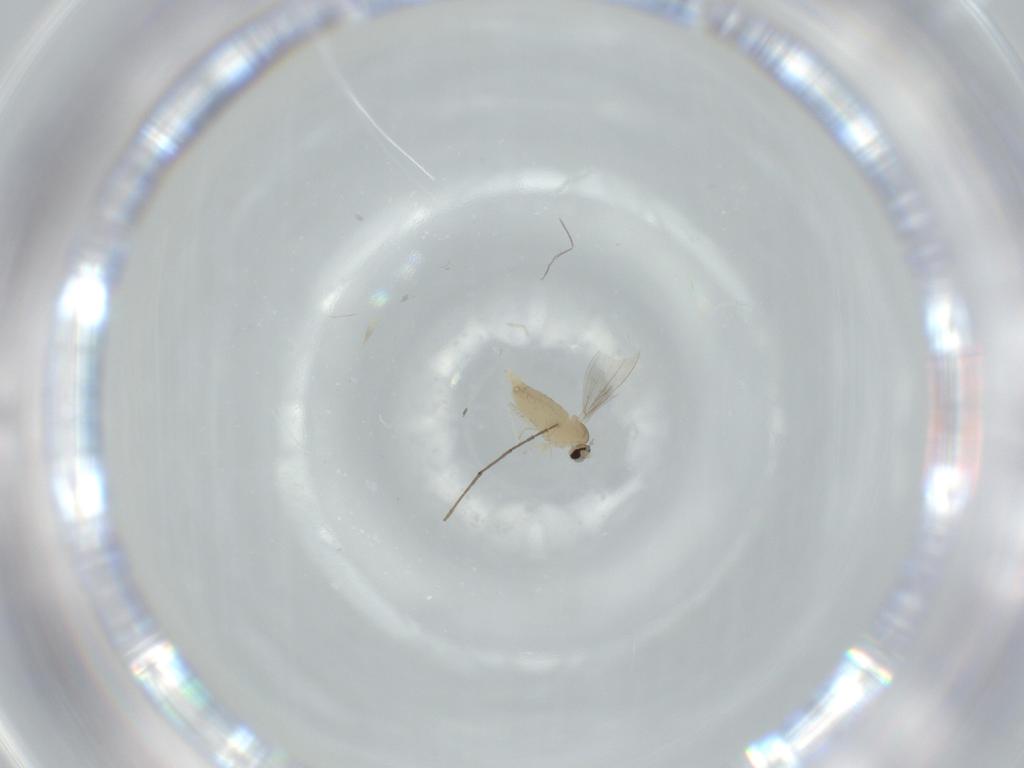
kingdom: Animalia
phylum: Arthropoda
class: Insecta
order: Diptera
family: Cecidomyiidae
